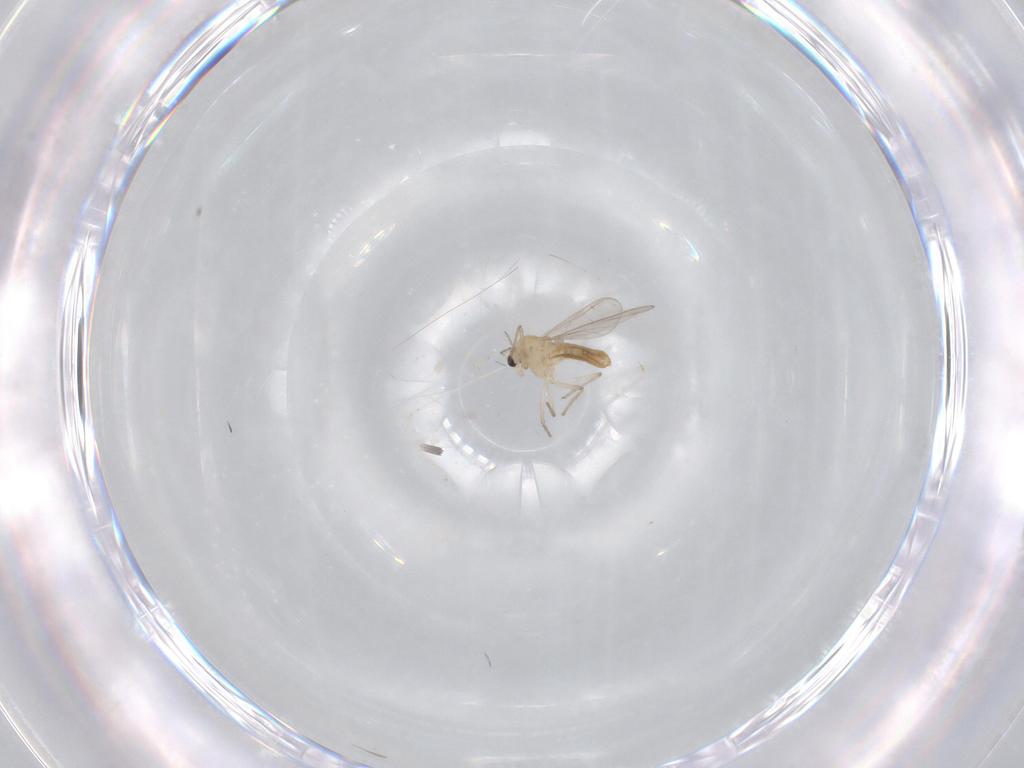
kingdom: Animalia
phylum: Arthropoda
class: Insecta
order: Diptera
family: Chironomidae
